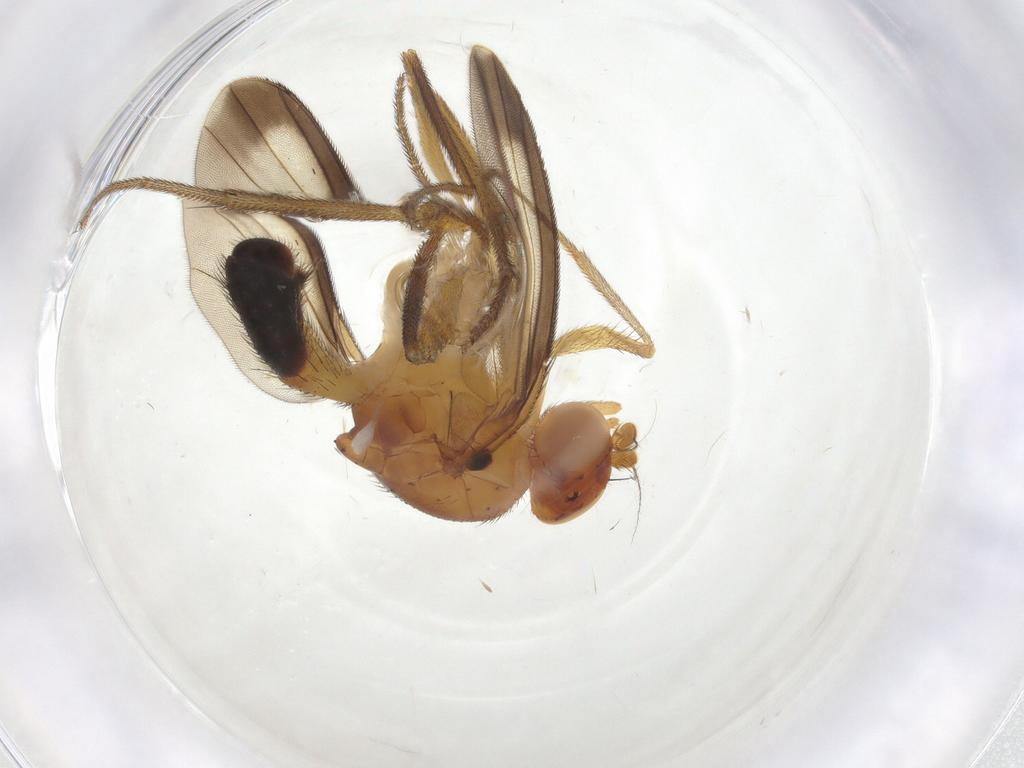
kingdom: Animalia
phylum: Arthropoda
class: Insecta
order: Diptera
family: Clusiidae
